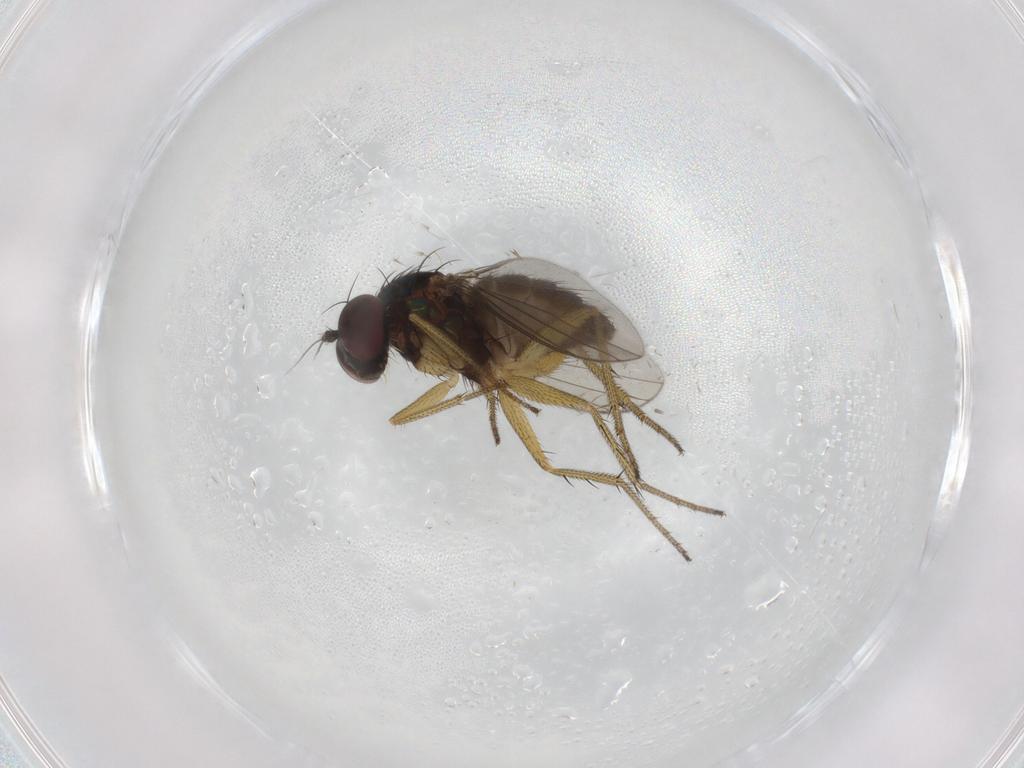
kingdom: Animalia
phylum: Arthropoda
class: Insecta
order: Diptera
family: Dolichopodidae
